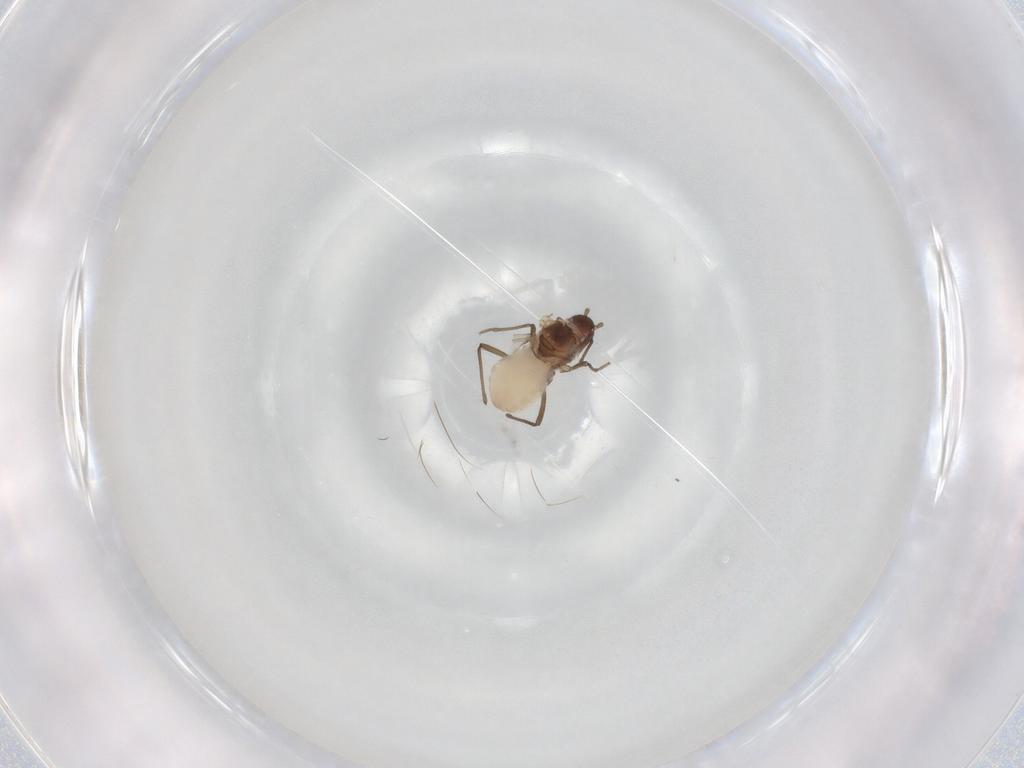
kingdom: Animalia
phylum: Arthropoda
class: Insecta
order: Hemiptera
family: Aphididae
